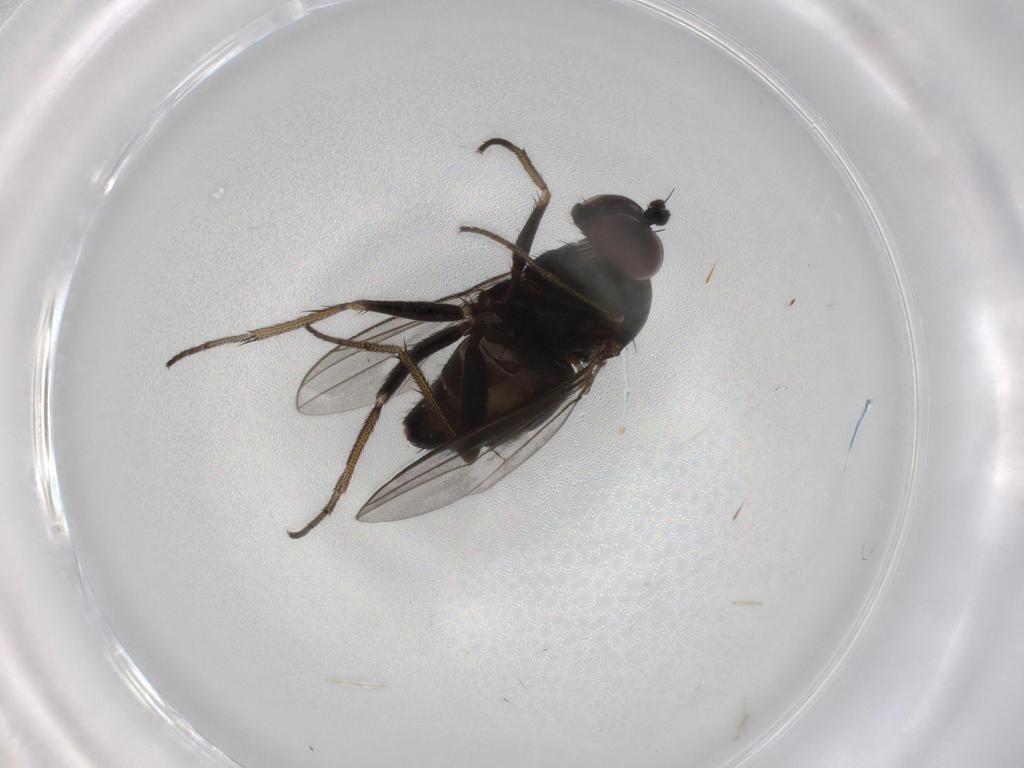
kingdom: Animalia
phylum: Arthropoda
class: Insecta
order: Diptera
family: Dolichopodidae
